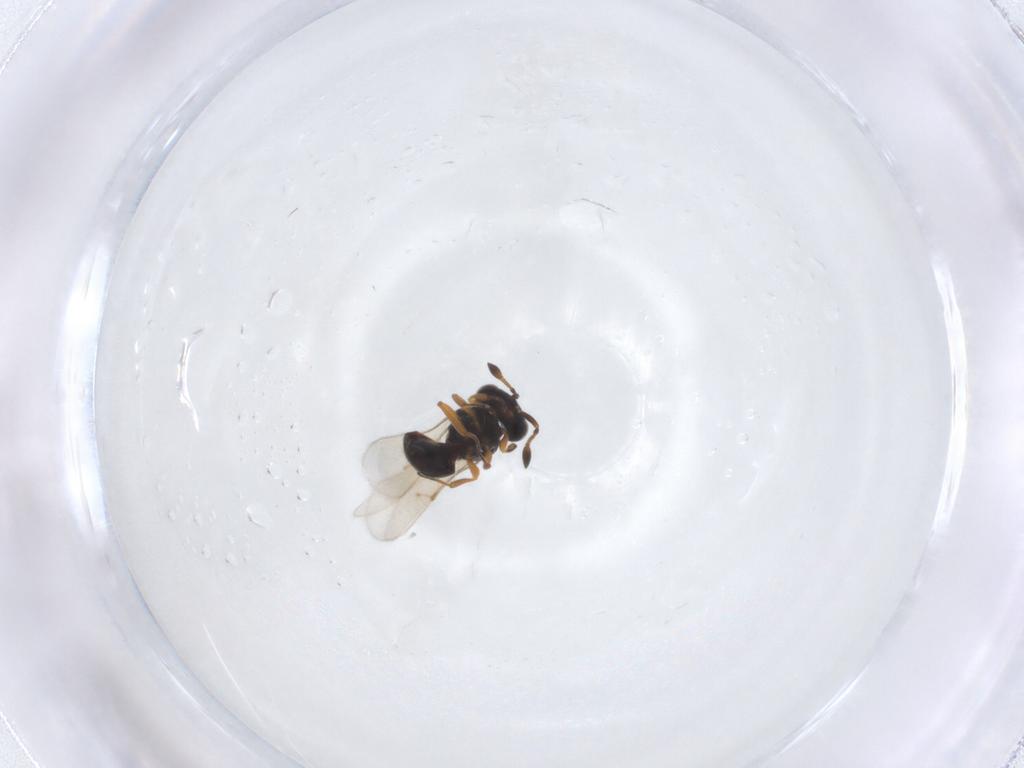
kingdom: Animalia
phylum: Arthropoda
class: Insecta
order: Hymenoptera
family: Scelionidae
